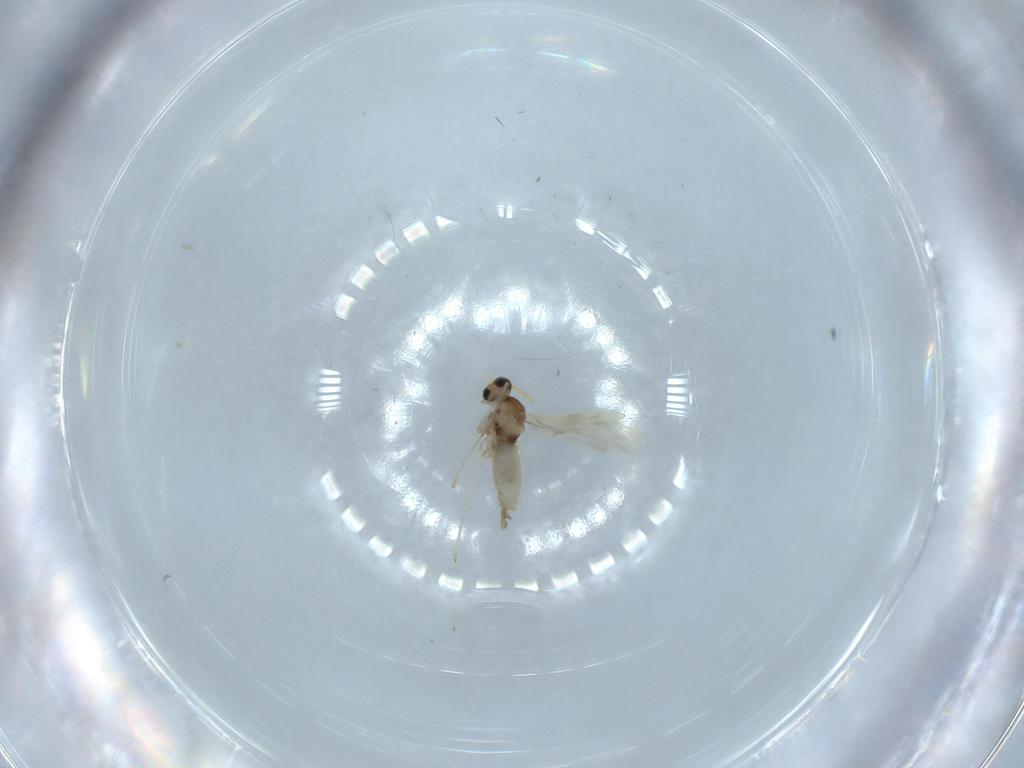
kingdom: Animalia
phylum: Arthropoda
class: Insecta
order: Diptera
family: Cecidomyiidae
